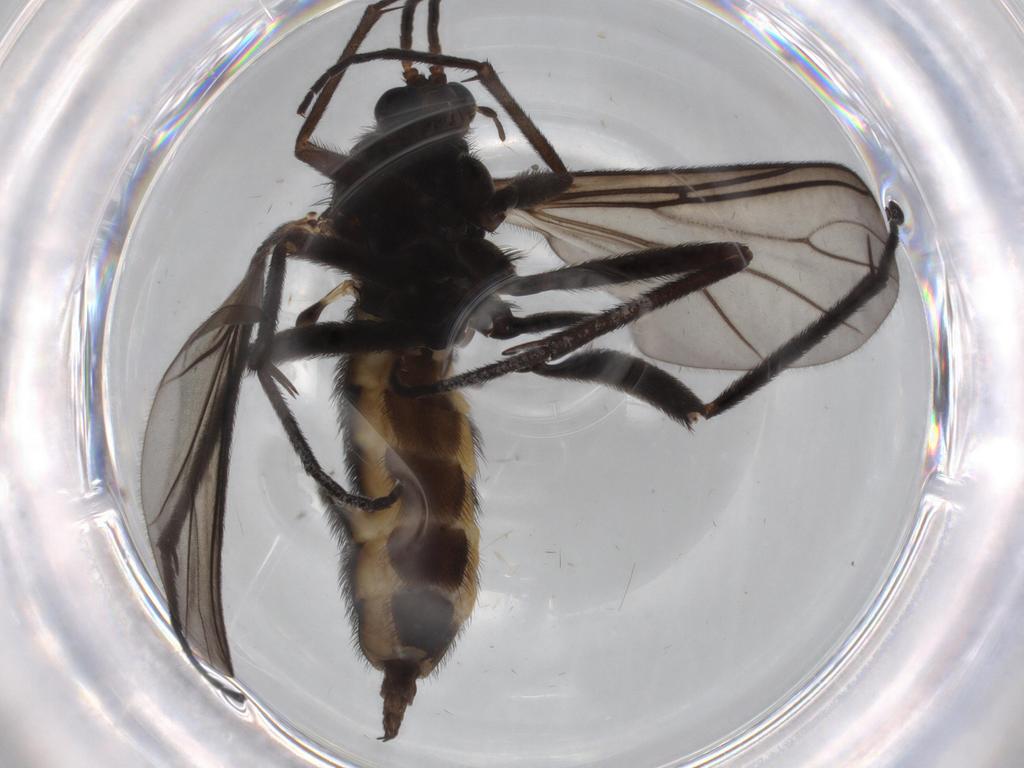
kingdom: Animalia
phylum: Arthropoda
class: Insecta
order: Diptera
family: Sciaridae
